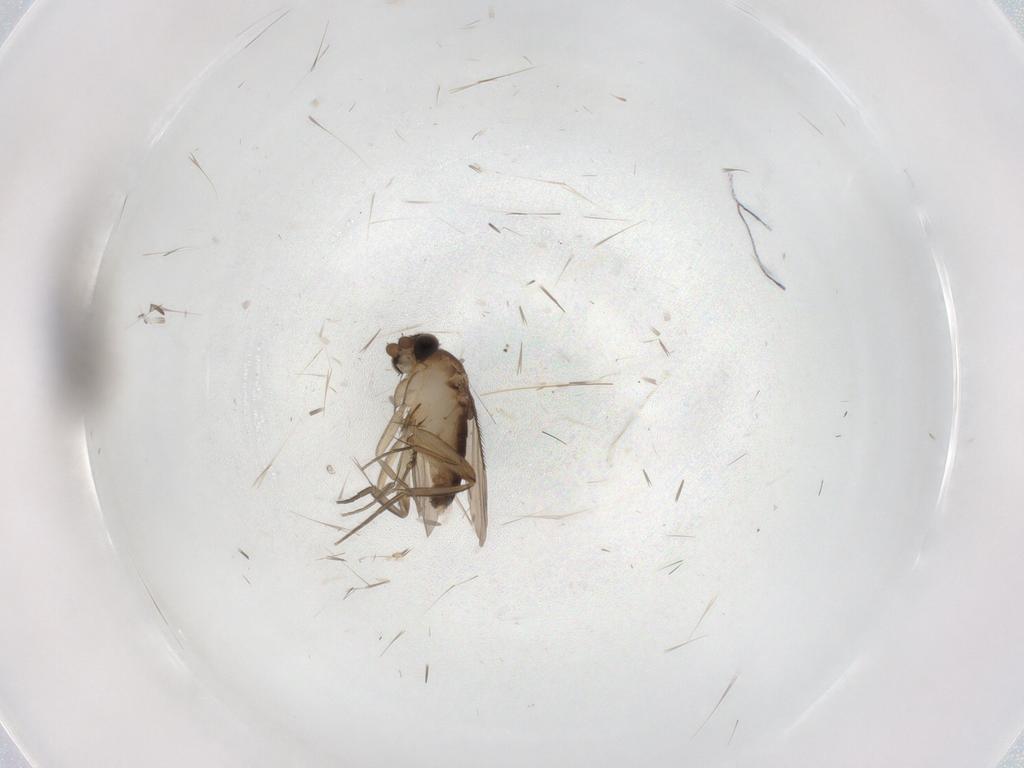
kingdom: Animalia
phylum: Arthropoda
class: Insecta
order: Diptera
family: Phoridae
